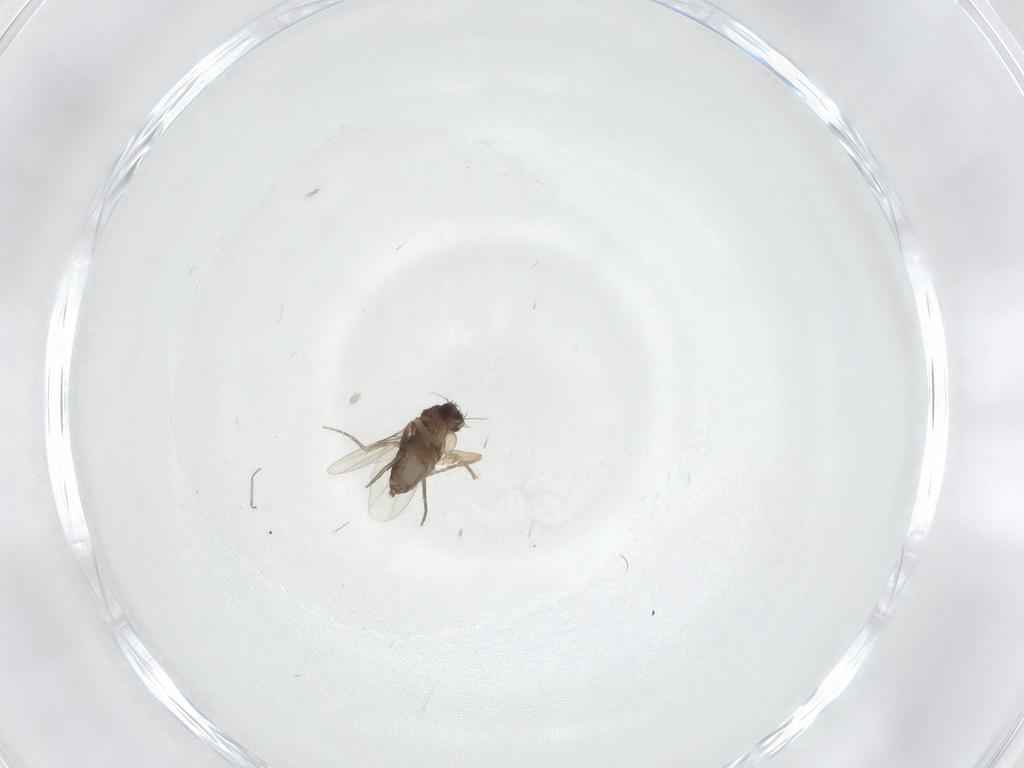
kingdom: Animalia
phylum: Arthropoda
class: Insecta
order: Diptera
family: Phoridae
